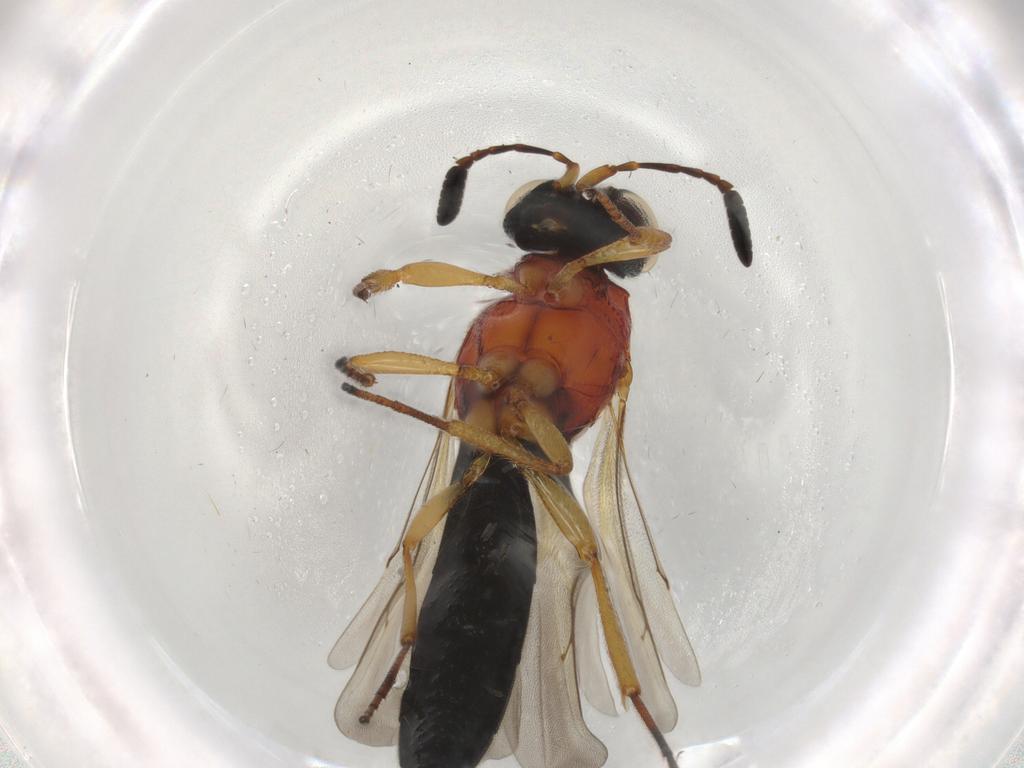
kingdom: Animalia
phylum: Arthropoda
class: Insecta
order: Hymenoptera
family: Scelionidae
